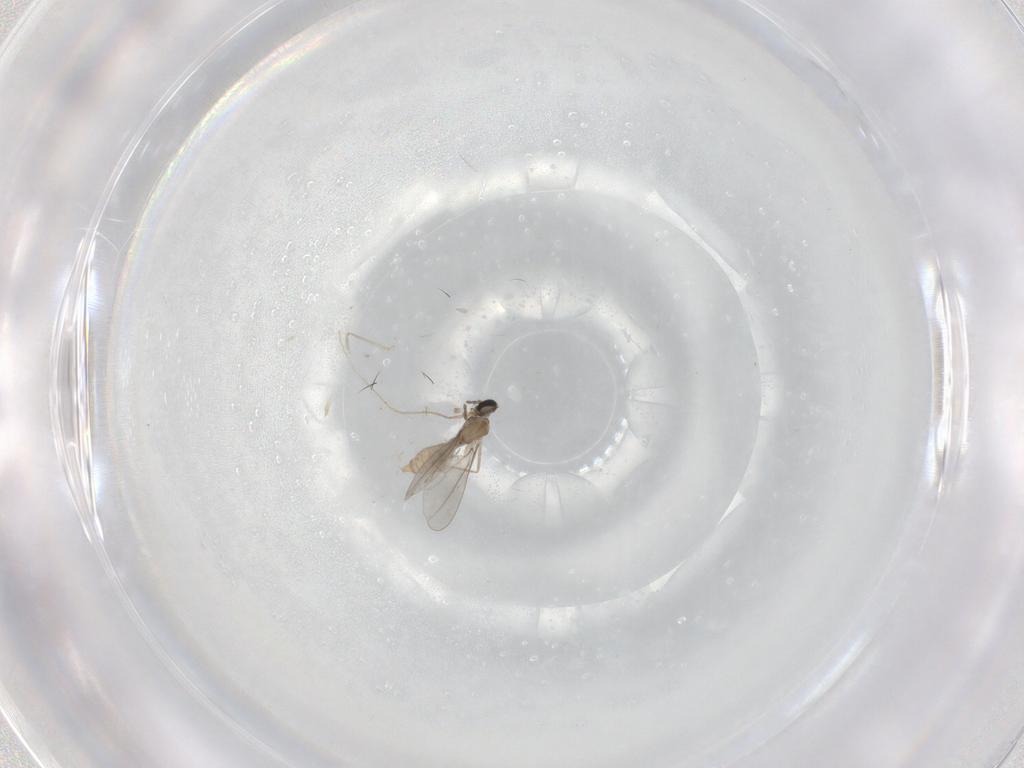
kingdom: Animalia
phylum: Arthropoda
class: Insecta
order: Diptera
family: Cecidomyiidae
